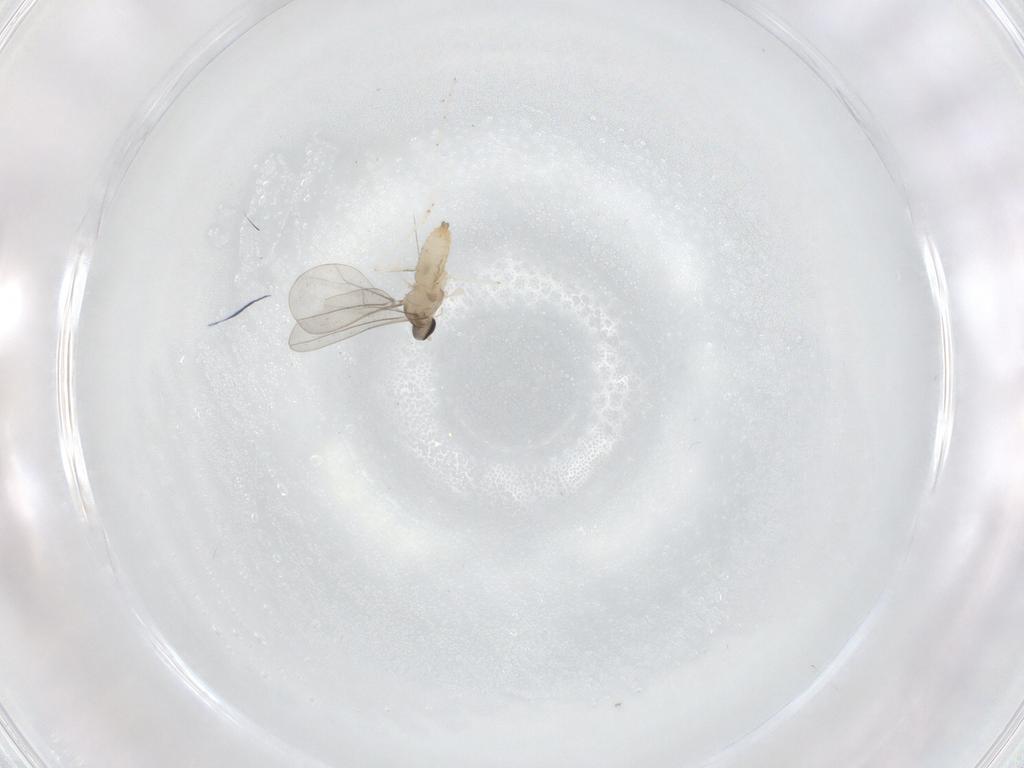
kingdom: Animalia
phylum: Arthropoda
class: Insecta
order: Diptera
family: Cecidomyiidae
